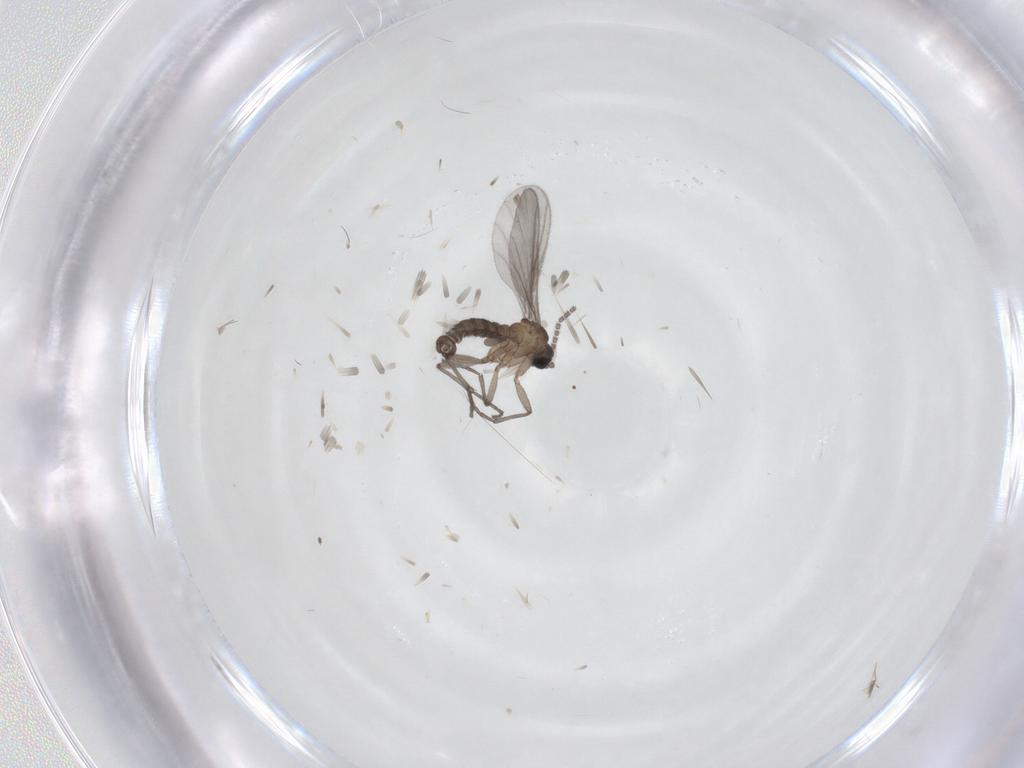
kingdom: Animalia
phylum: Arthropoda
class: Insecta
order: Diptera
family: Sciaridae
